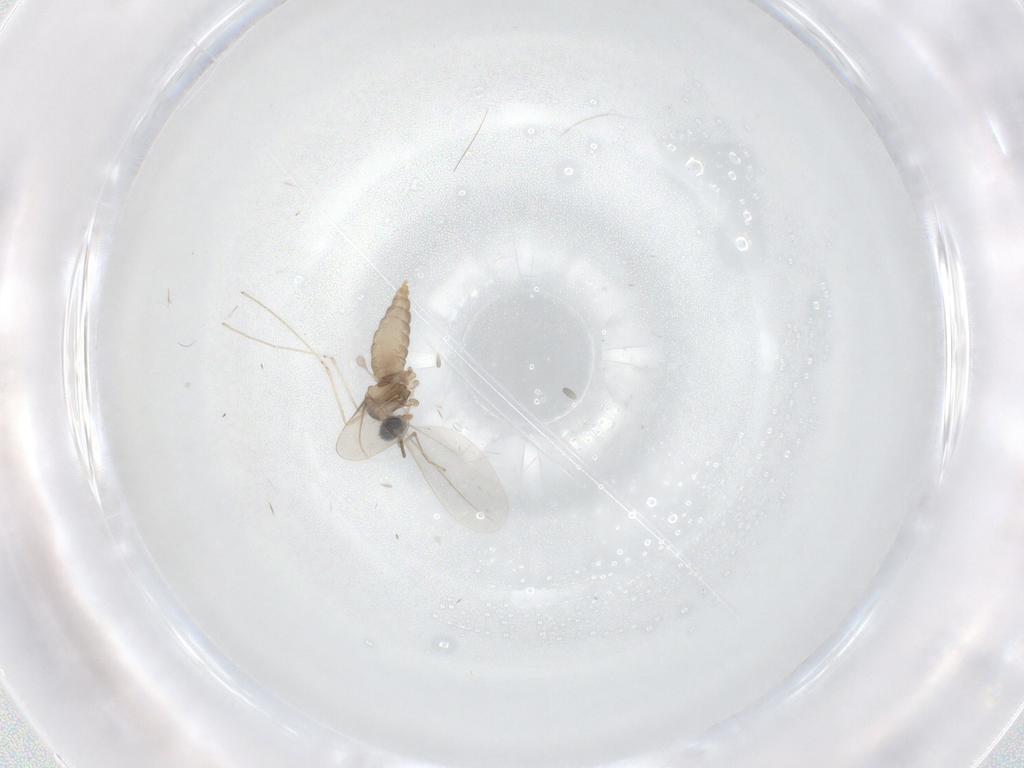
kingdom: Animalia
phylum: Arthropoda
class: Insecta
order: Diptera
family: Cecidomyiidae
